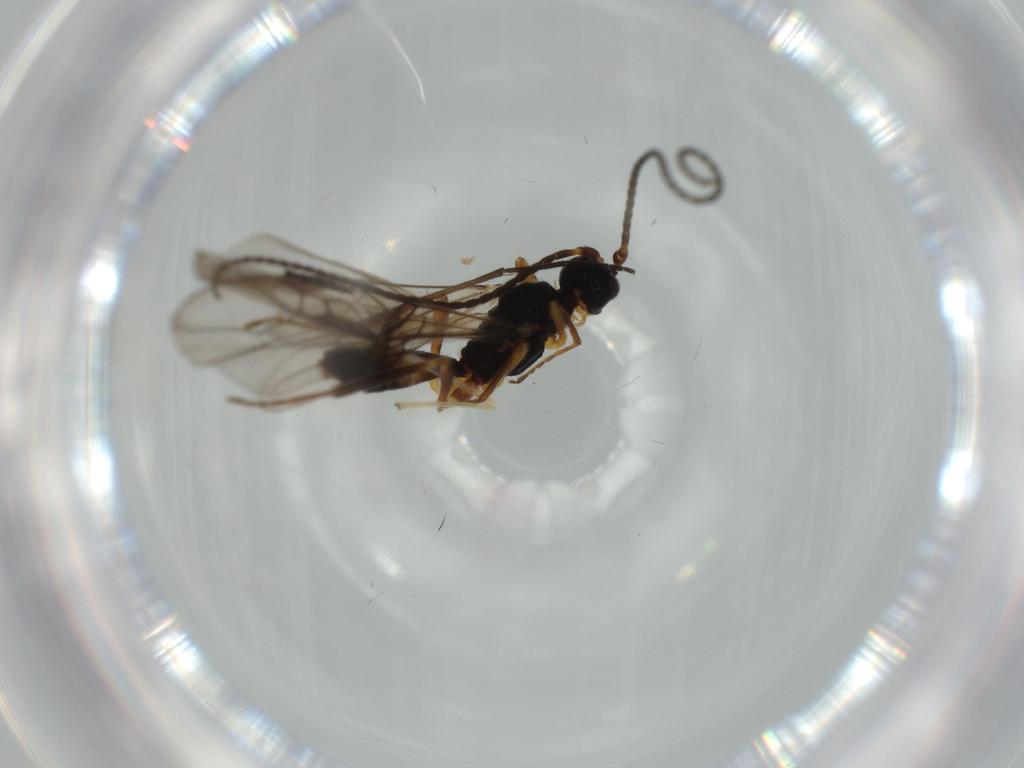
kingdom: Animalia
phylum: Arthropoda
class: Insecta
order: Hymenoptera
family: Braconidae
